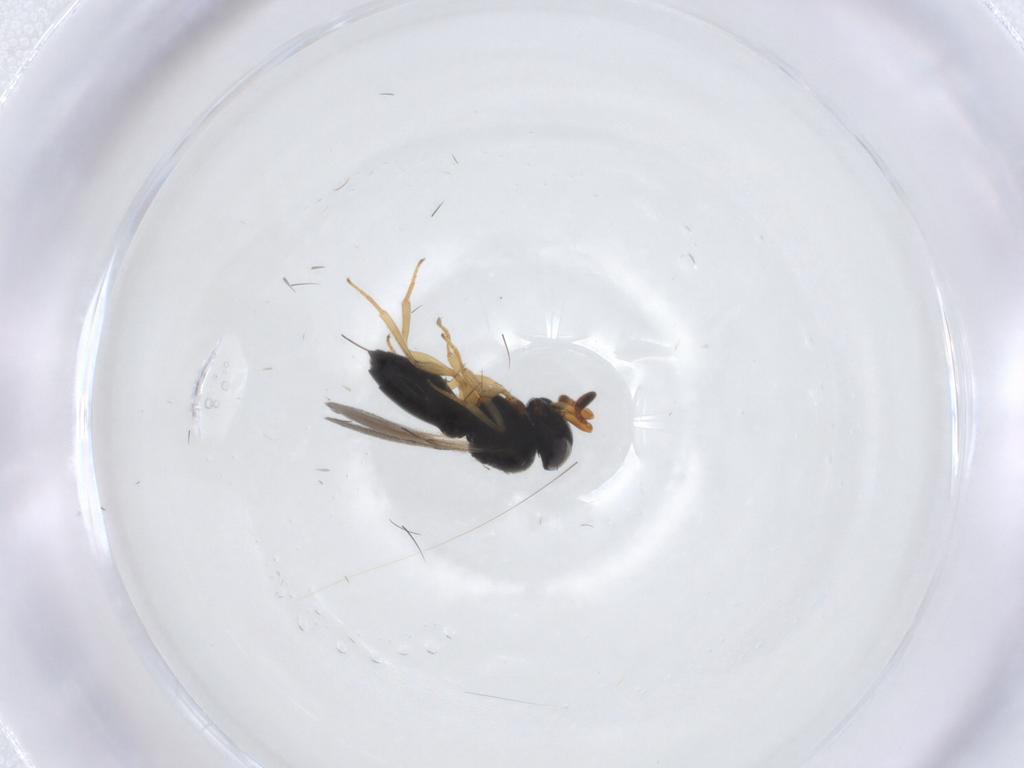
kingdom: Animalia
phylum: Arthropoda
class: Insecta
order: Hymenoptera
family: Scelionidae
